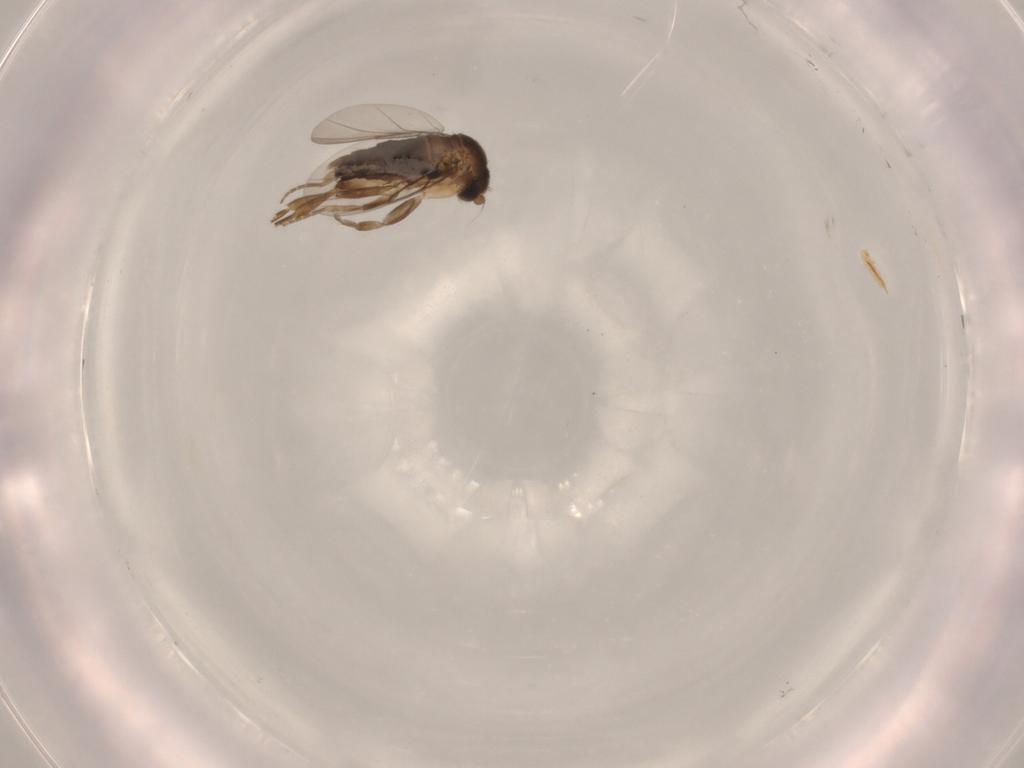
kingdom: Animalia
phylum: Arthropoda
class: Insecta
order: Diptera
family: Phoridae
